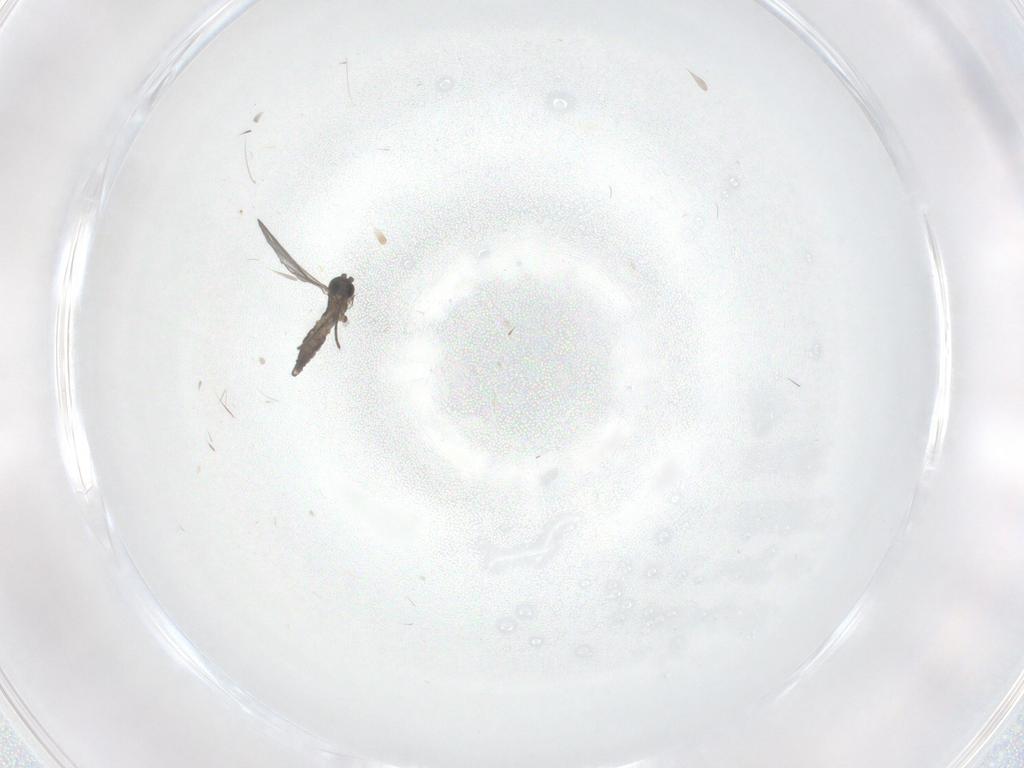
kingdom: Animalia
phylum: Arthropoda
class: Insecta
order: Diptera
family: Sciaridae
